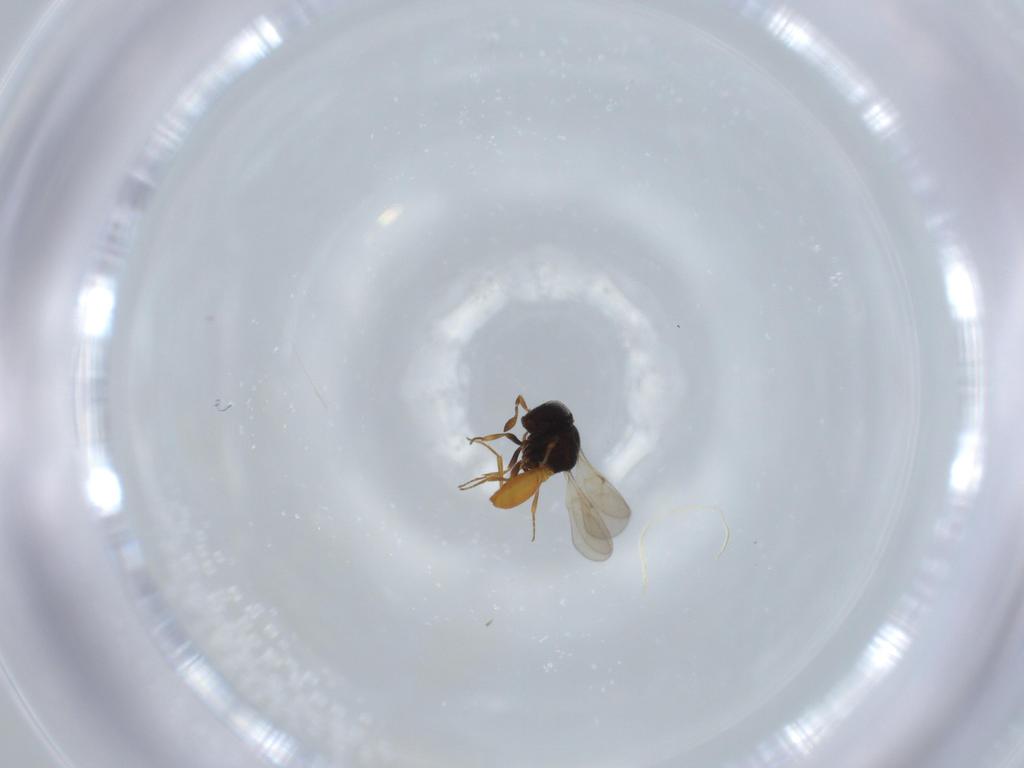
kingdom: Animalia
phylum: Arthropoda
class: Insecta
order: Hymenoptera
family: Scelionidae
